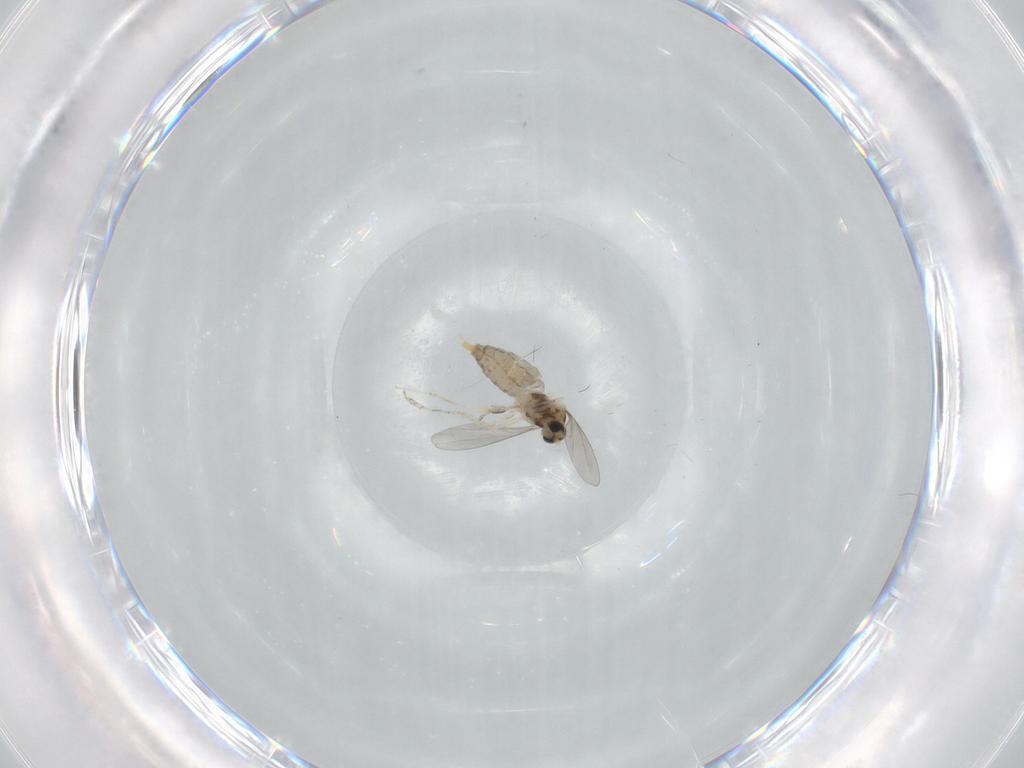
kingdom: Animalia
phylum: Arthropoda
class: Insecta
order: Diptera
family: Cecidomyiidae
